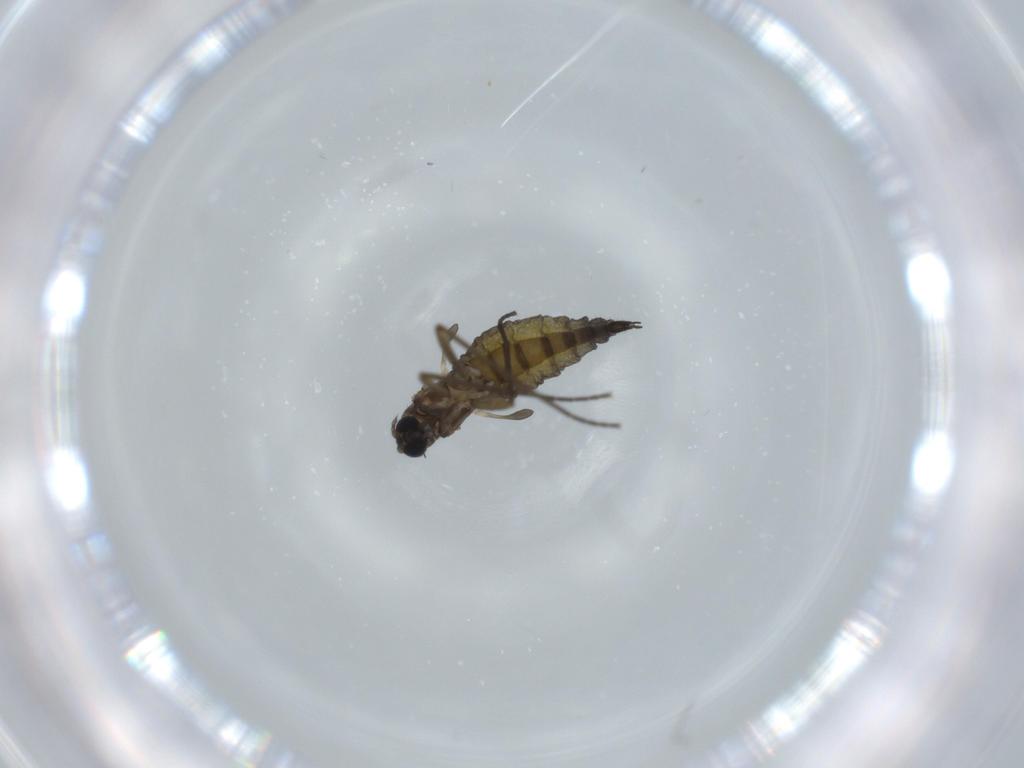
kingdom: Animalia
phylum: Arthropoda
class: Insecta
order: Diptera
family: Sciaridae
